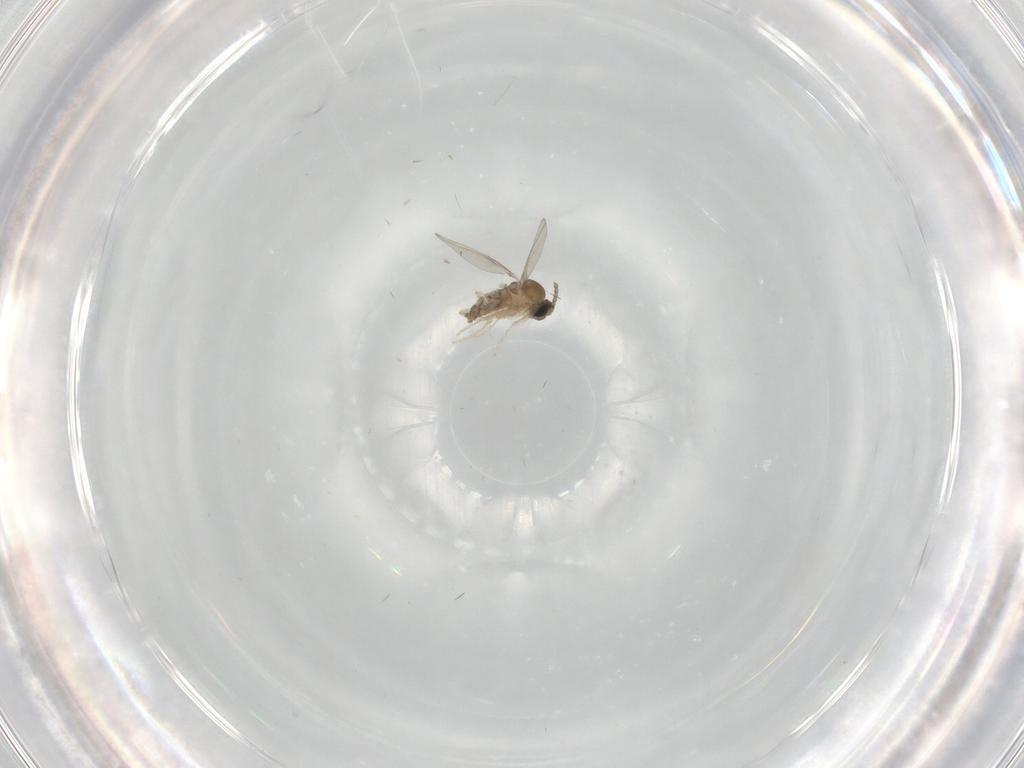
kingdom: Animalia
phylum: Arthropoda
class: Insecta
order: Diptera
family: Cecidomyiidae
